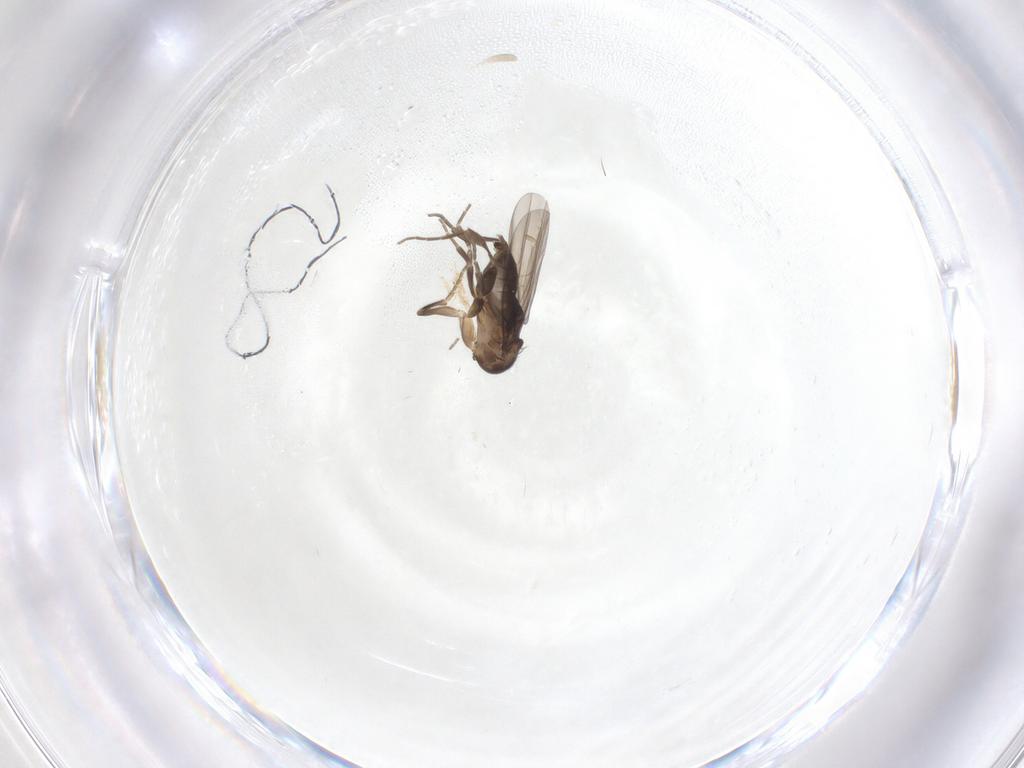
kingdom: Animalia
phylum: Arthropoda
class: Insecta
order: Diptera
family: Phoridae
